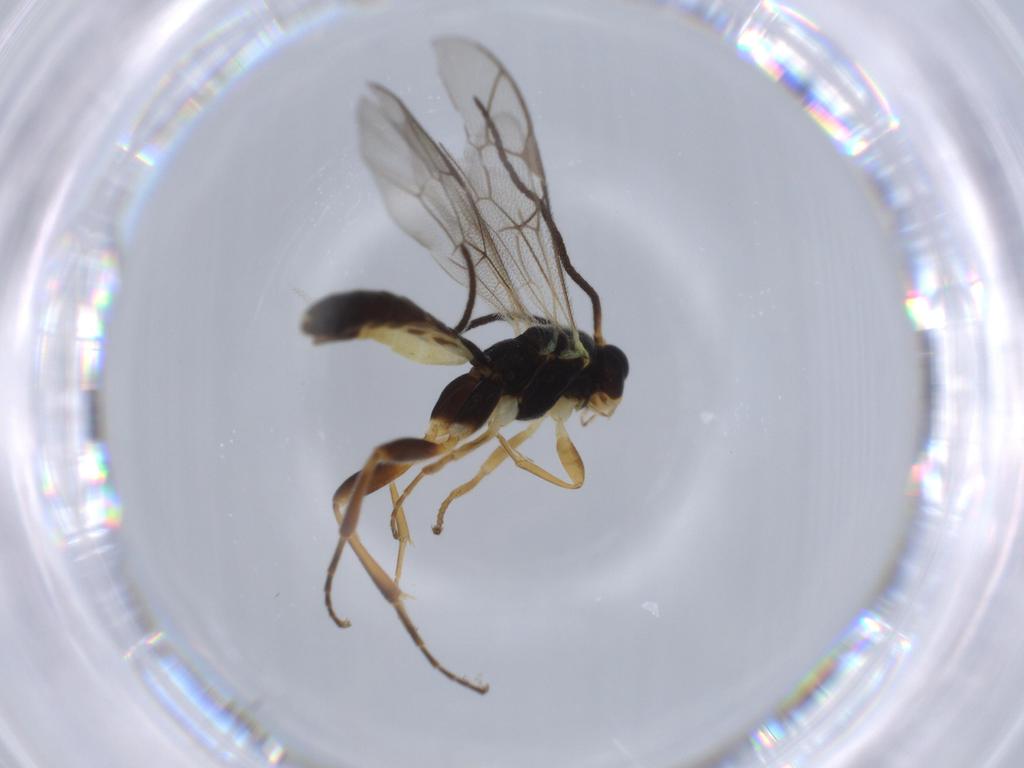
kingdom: Animalia
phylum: Arthropoda
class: Insecta
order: Hymenoptera
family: Ichneumonidae
